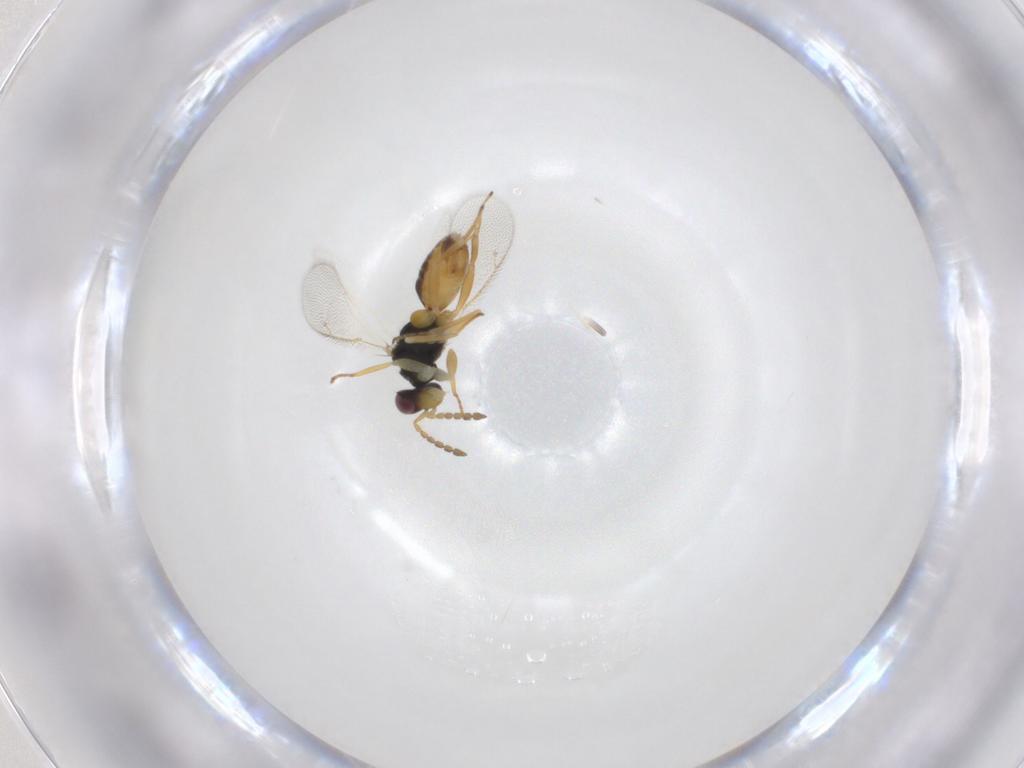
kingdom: Animalia
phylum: Arthropoda
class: Insecta
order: Hymenoptera
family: Eulophidae
